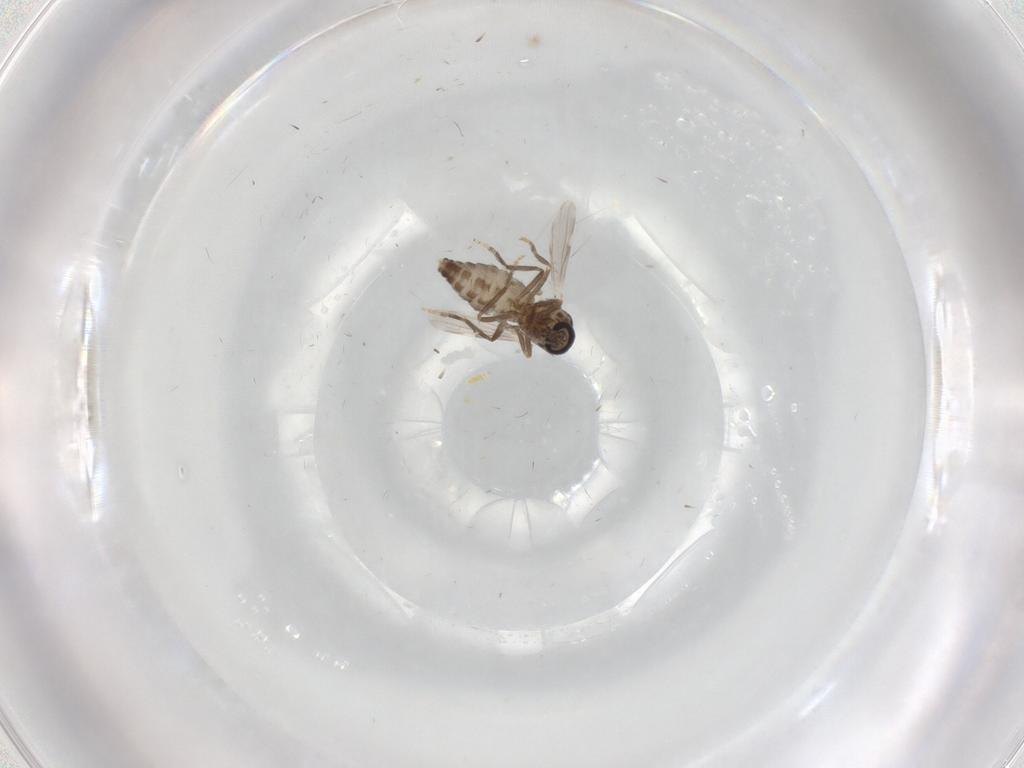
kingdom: Animalia
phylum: Arthropoda
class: Insecta
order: Diptera
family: Ceratopogonidae
